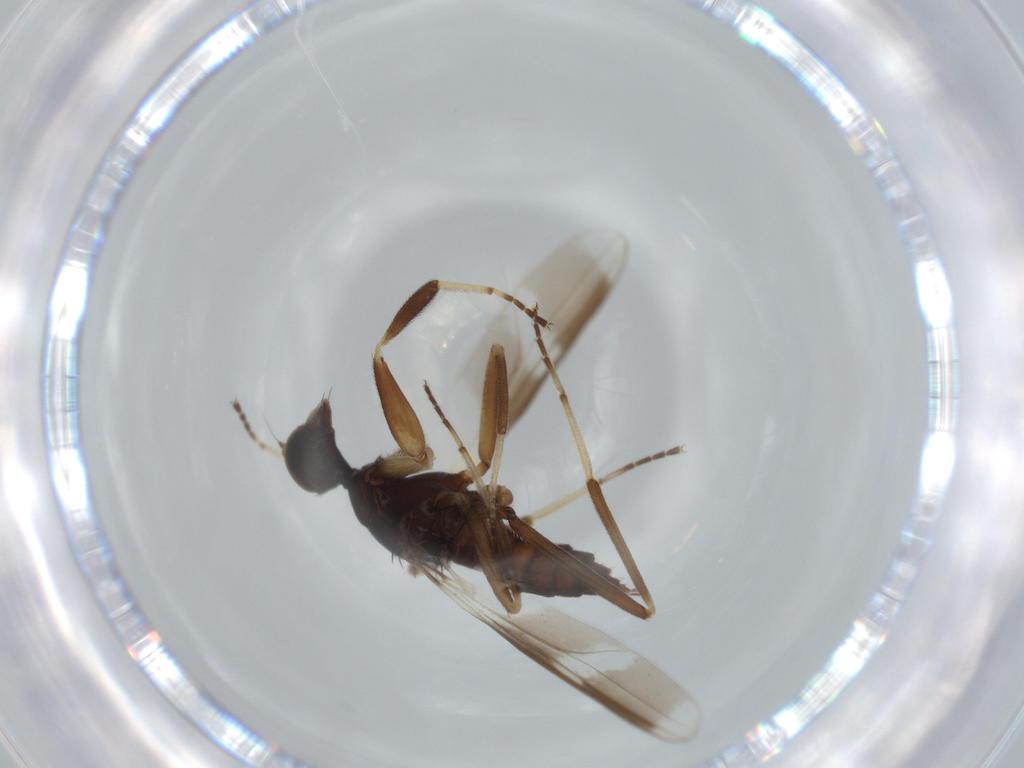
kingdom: Animalia
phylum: Arthropoda
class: Insecta
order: Diptera
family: Hybotidae
